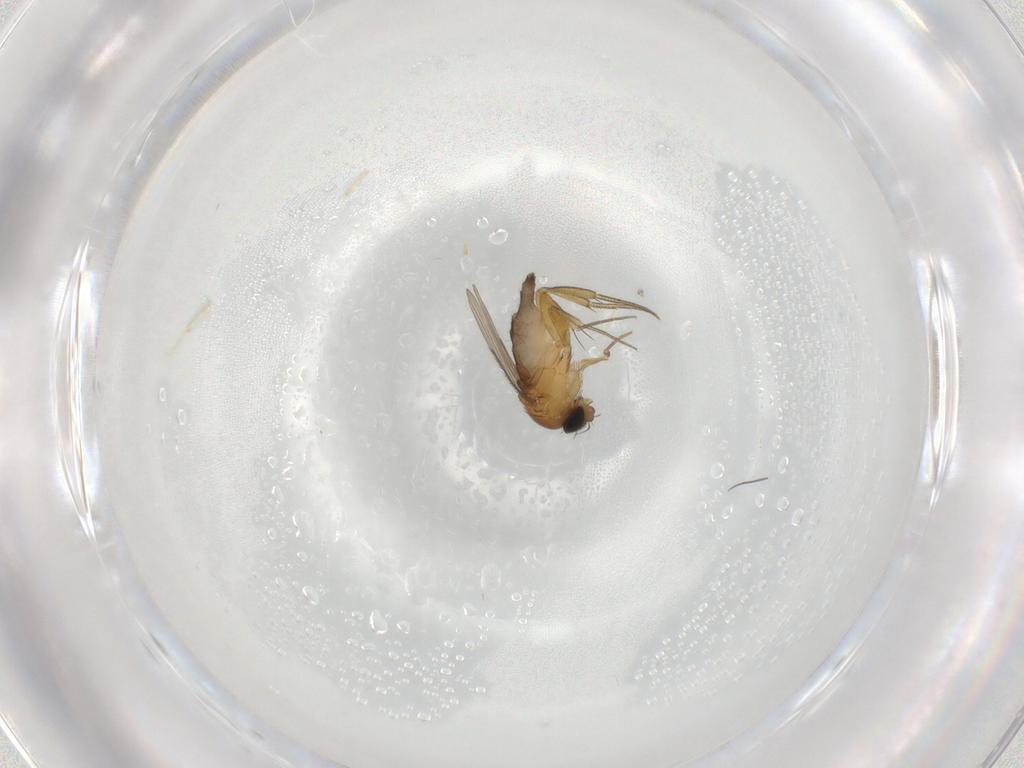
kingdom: Animalia
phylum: Arthropoda
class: Insecta
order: Diptera
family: Phoridae
